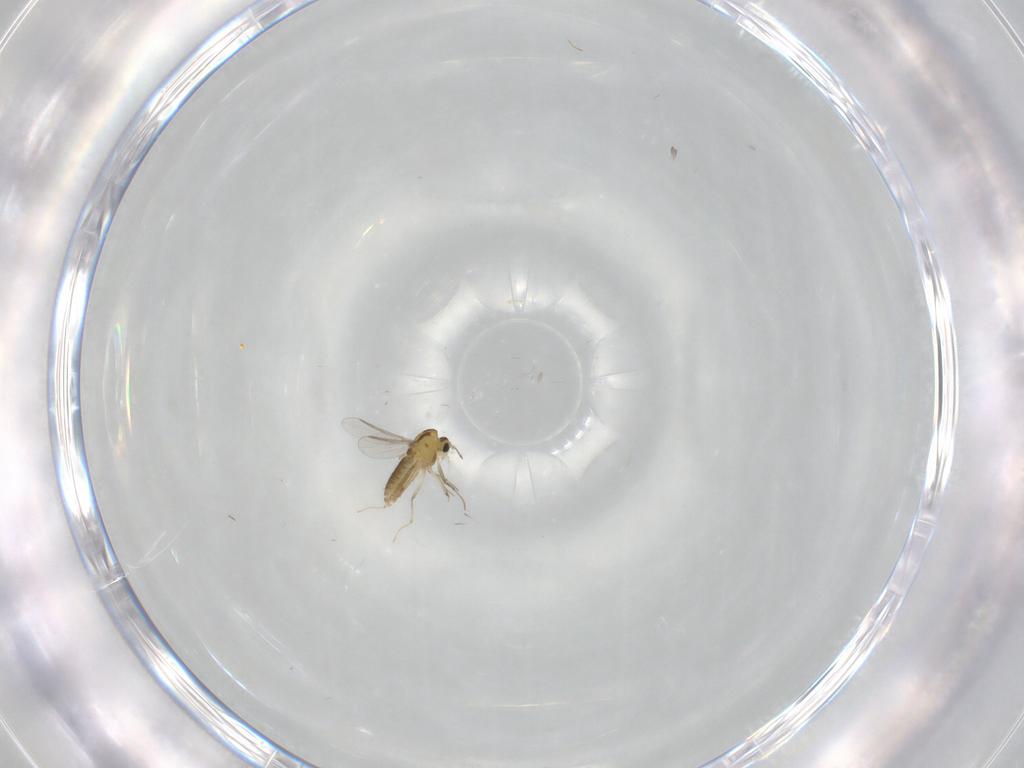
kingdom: Animalia
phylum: Arthropoda
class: Insecta
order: Diptera
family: Chironomidae
